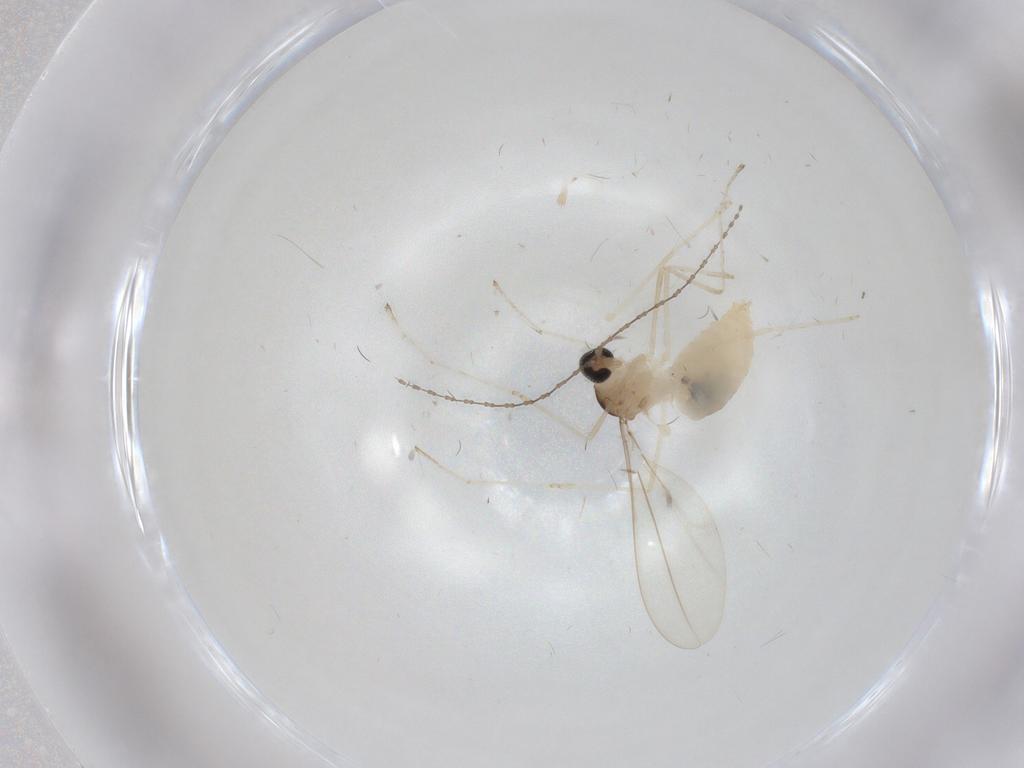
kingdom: Animalia
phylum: Arthropoda
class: Insecta
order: Diptera
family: Cecidomyiidae
